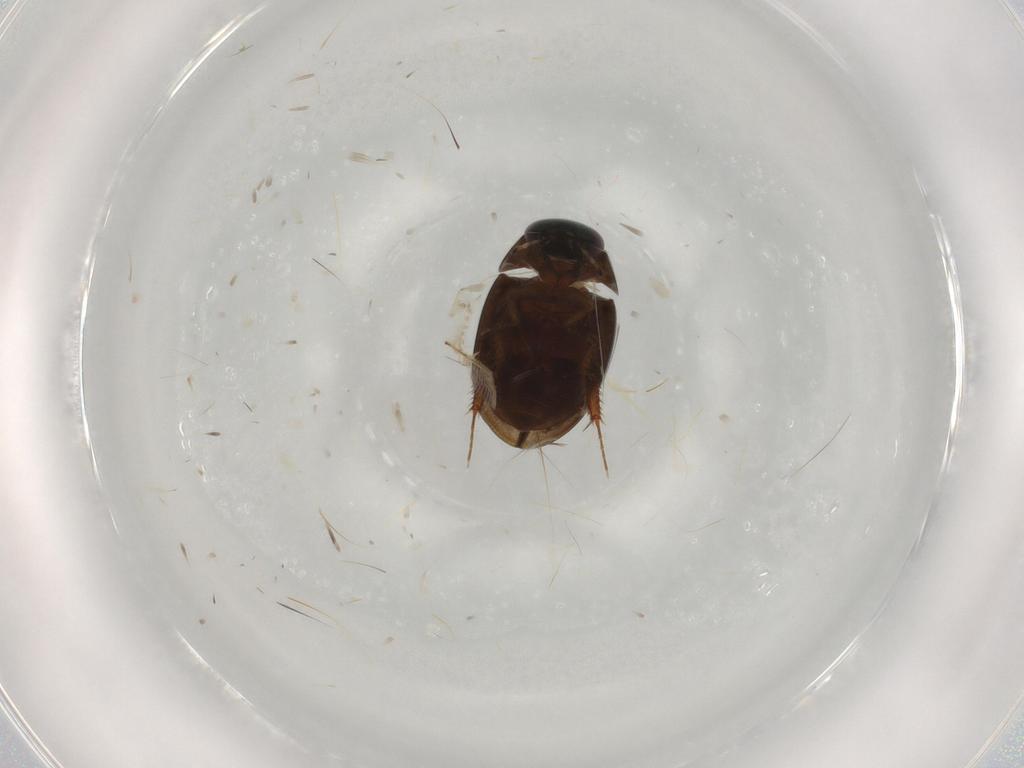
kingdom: Animalia
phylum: Arthropoda
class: Insecta
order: Coleoptera
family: Hydrophilidae
